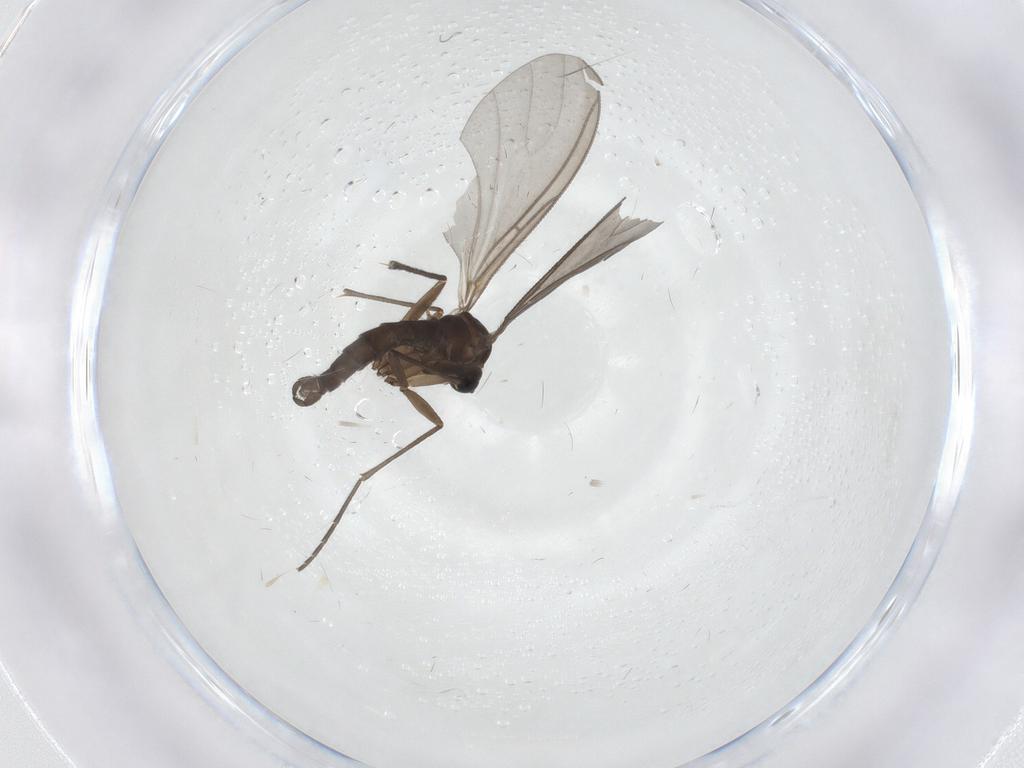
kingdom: Animalia
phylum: Arthropoda
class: Insecta
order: Diptera
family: Sciaridae
